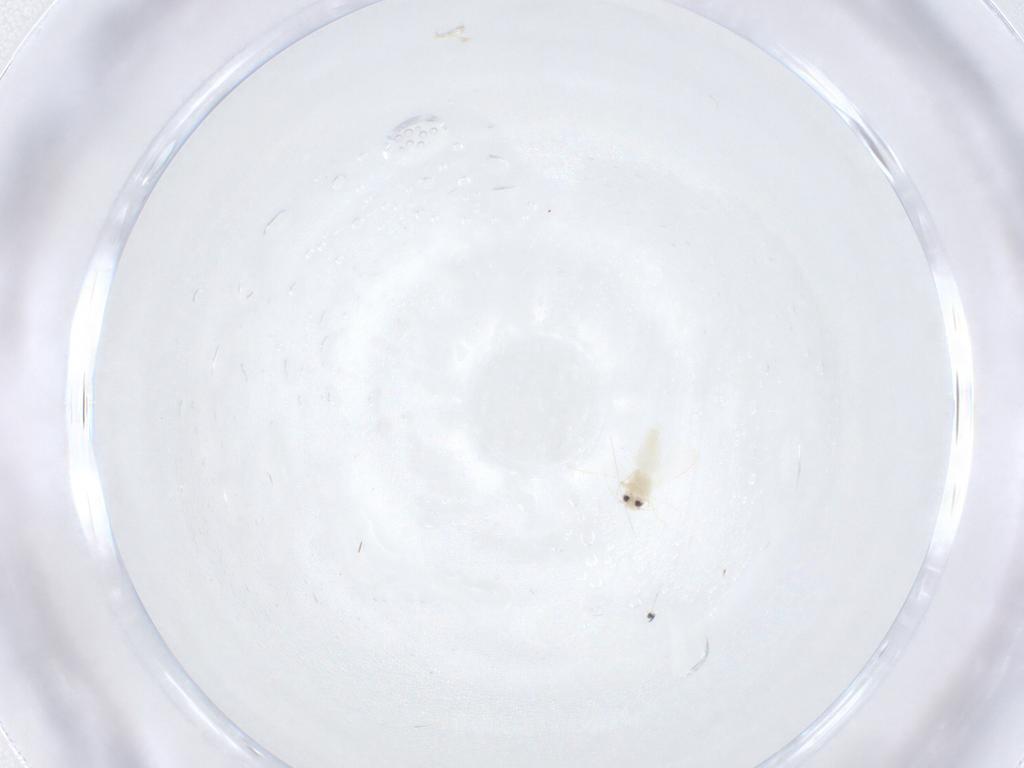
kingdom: Animalia
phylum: Arthropoda
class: Insecta
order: Hemiptera
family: Aleyrodidae
